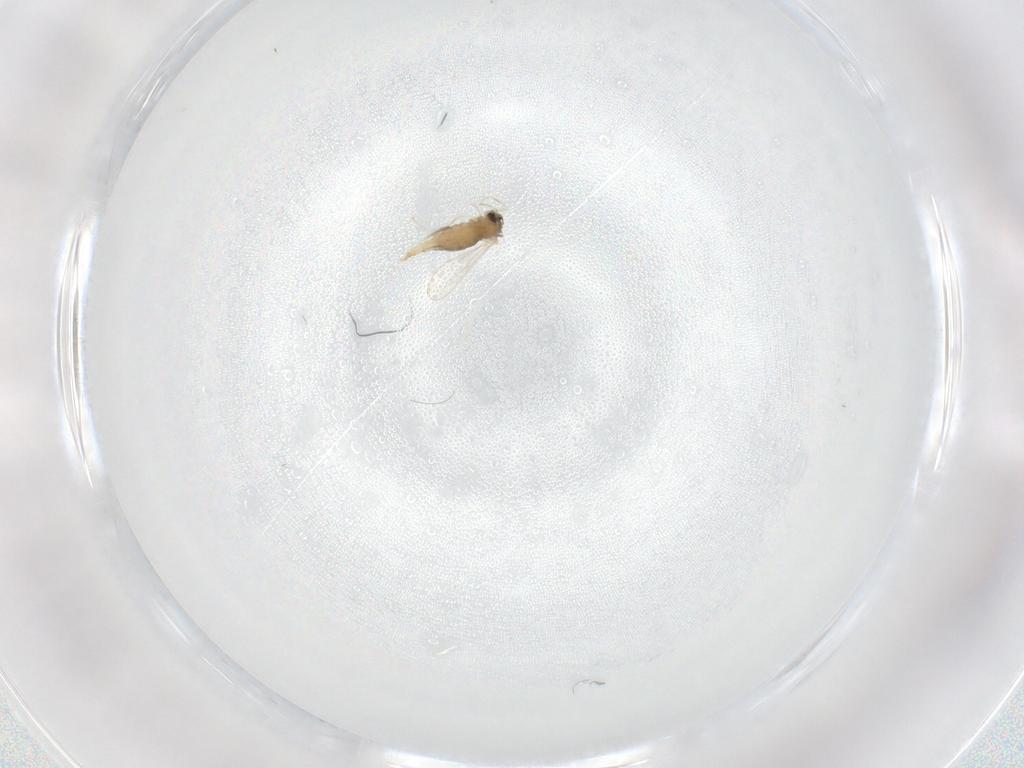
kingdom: Animalia
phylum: Arthropoda
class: Insecta
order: Diptera
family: Cecidomyiidae
